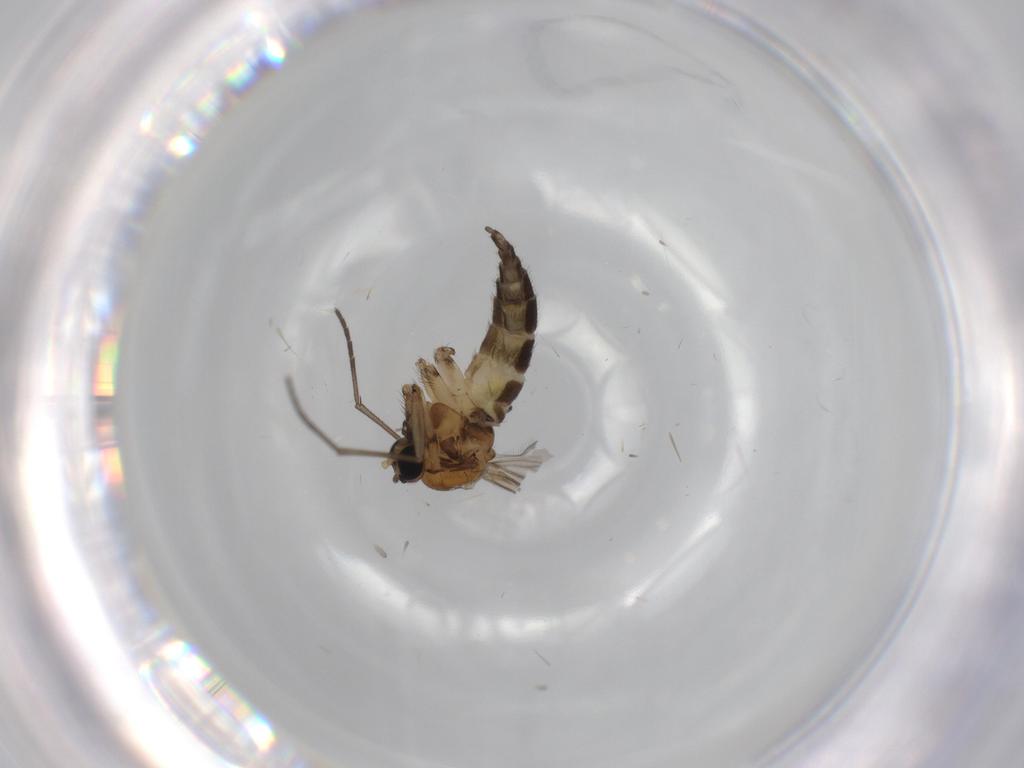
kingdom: Animalia
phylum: Arthropoda
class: Insecta
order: Diptera
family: Sciaridae
